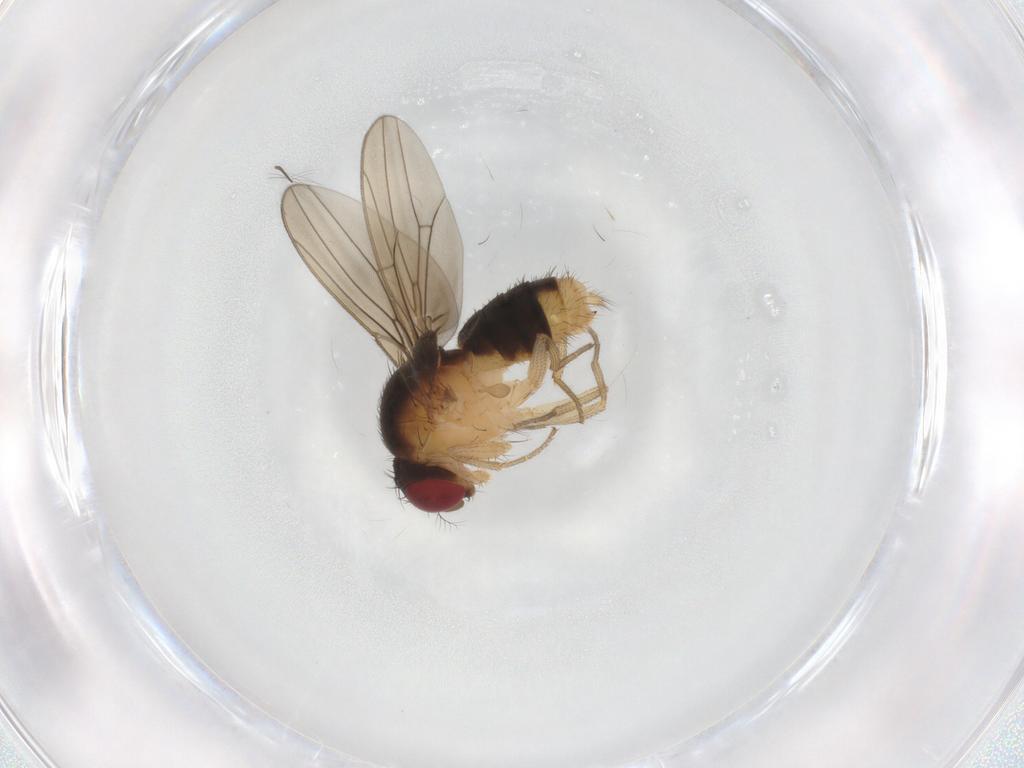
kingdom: Animalia
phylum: Arthropoda
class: Insecta
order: Diptera
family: Drosophilidae
